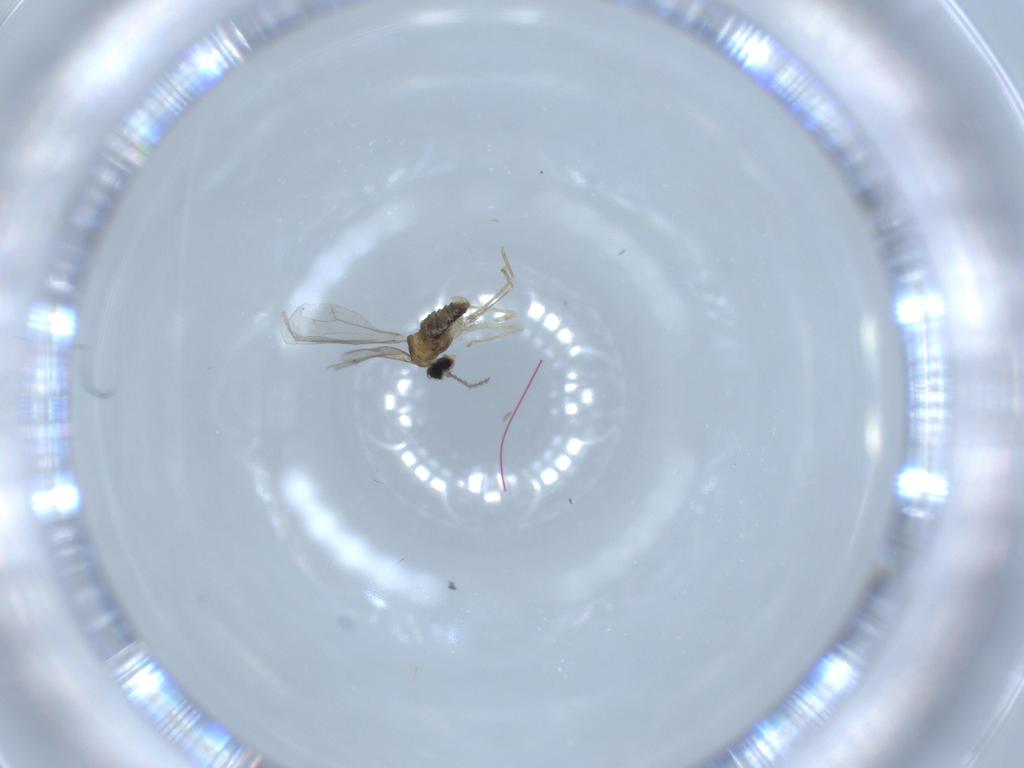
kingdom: Animalia
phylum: Arthropoda
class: Insecta
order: Diptera
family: Cecidomyiidae
